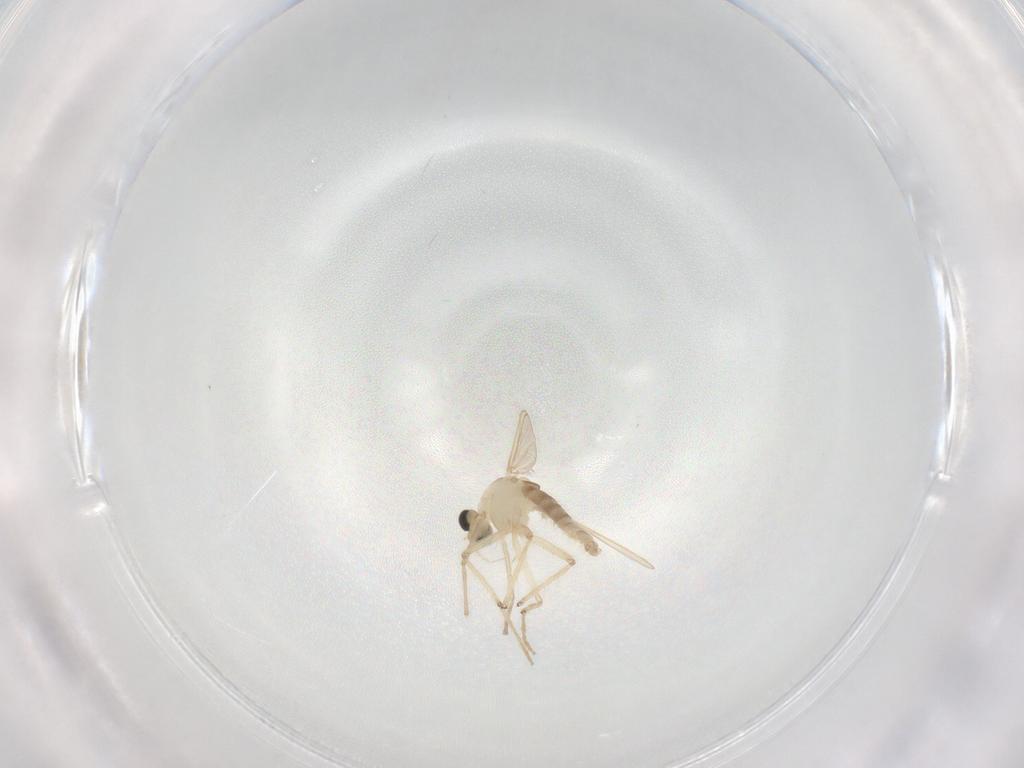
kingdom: Animalia
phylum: Arthropoda
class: Insecta
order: Diptera
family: Chironomidae
